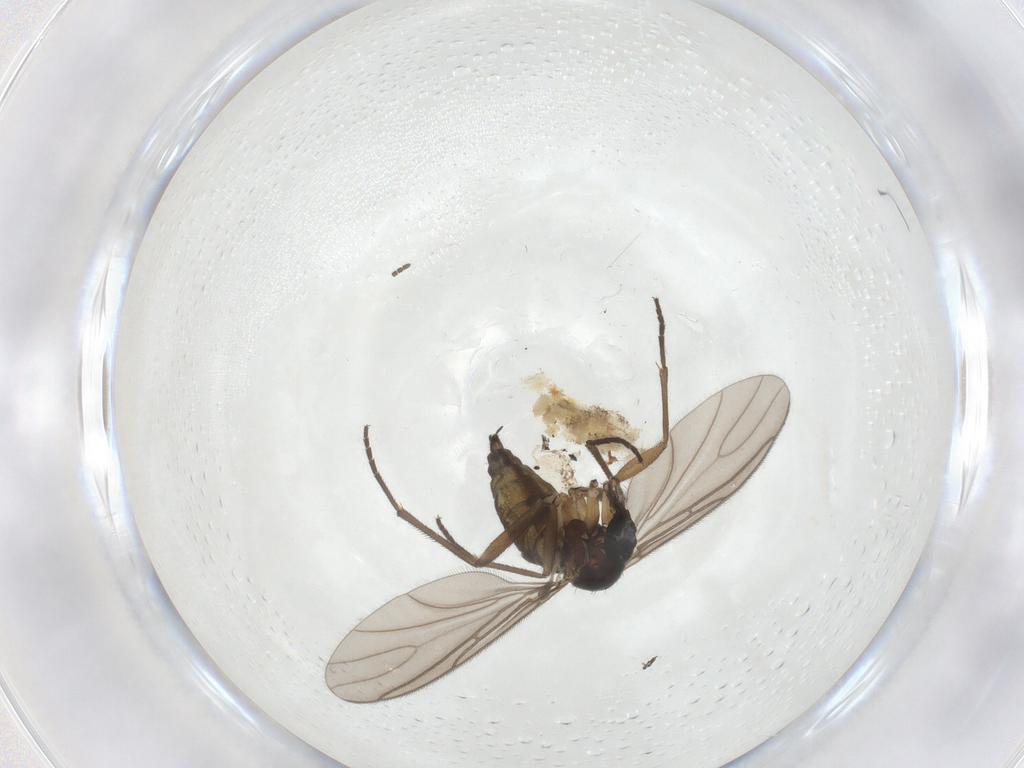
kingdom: Animalia
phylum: Arthropoda
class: Insecta
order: Diptera
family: Sciaridae
